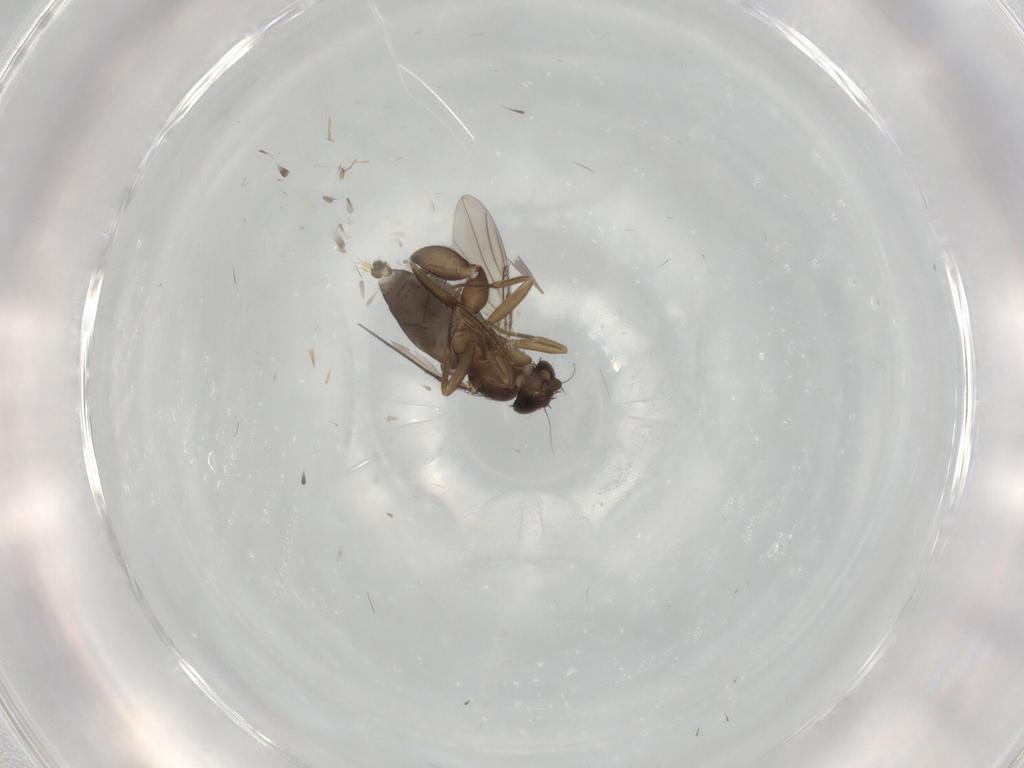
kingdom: Animalia
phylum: Arthropoda
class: Insecta
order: Diptera
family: Phoridae
